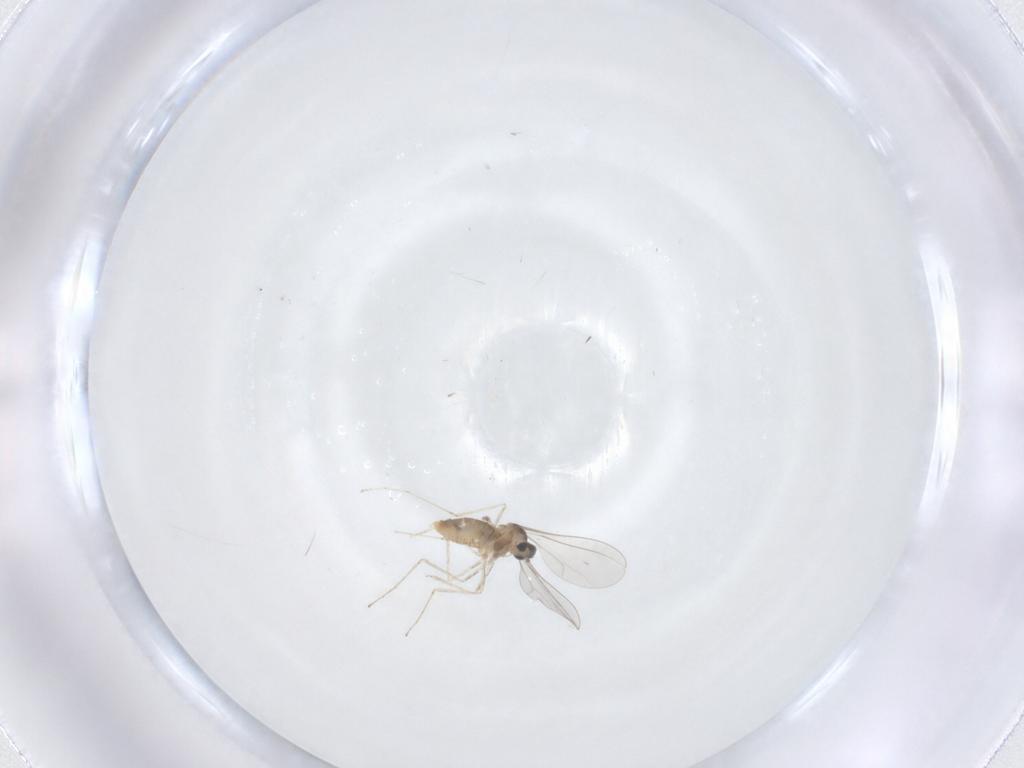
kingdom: Animalia
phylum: Arthropoda
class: Insecta
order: Diptera
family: Cecidomyiidae
